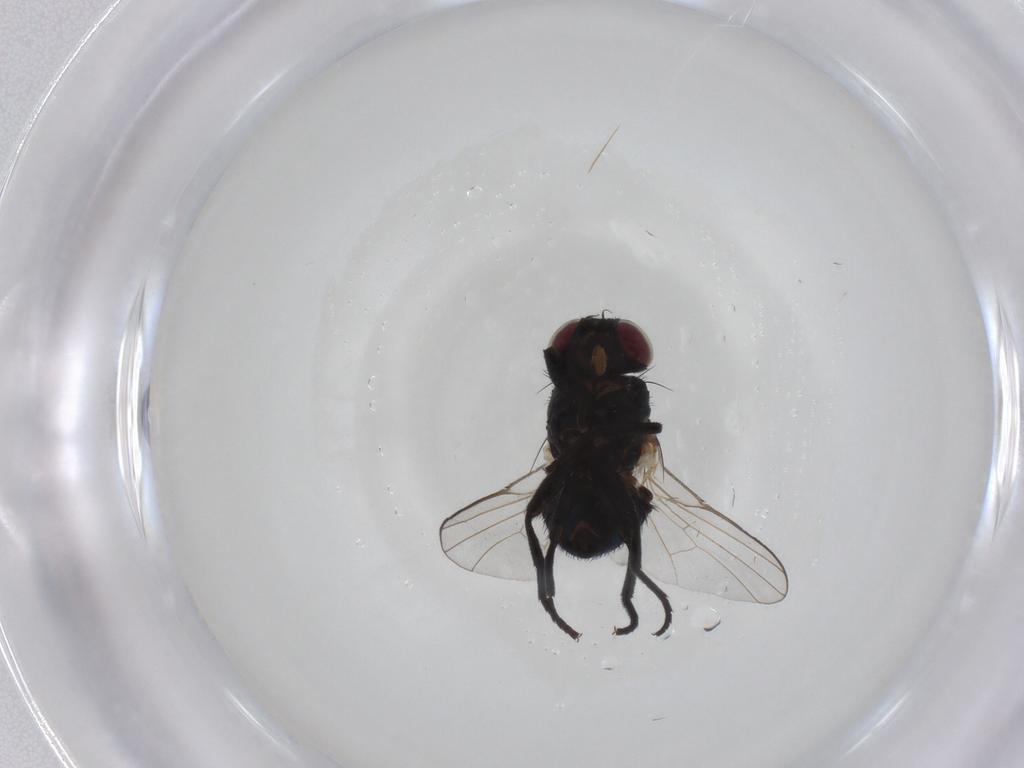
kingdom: Animalia
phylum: Arthropoda
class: Insecta
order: Diptera
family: Agromyzidae
